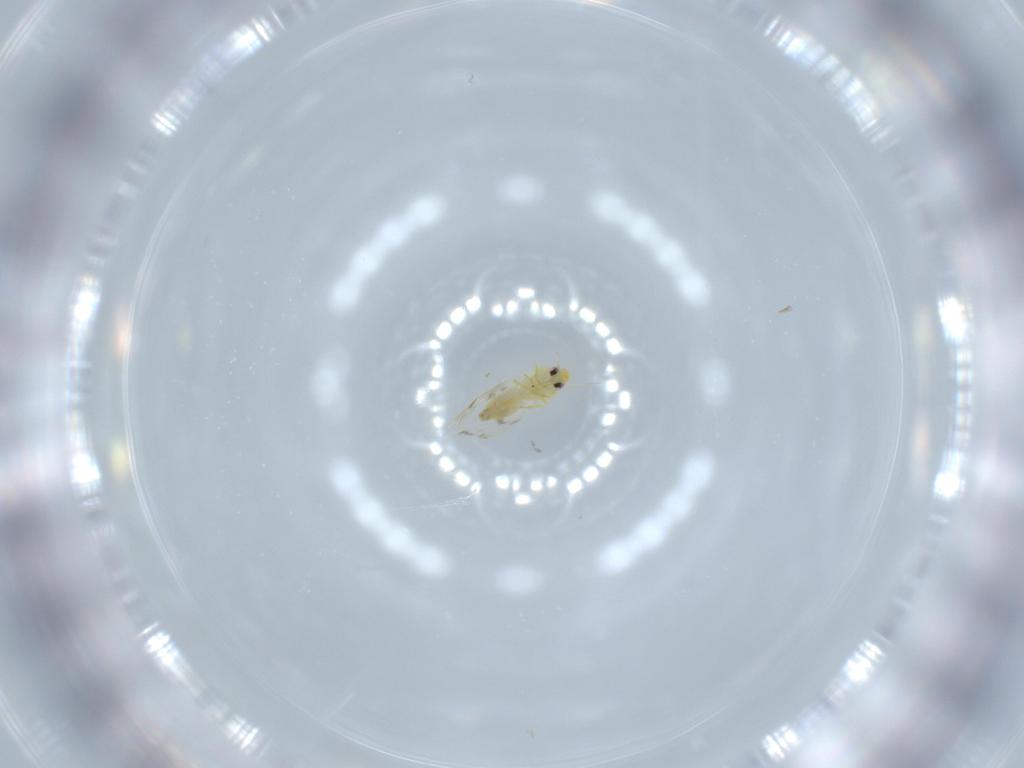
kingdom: Animalia
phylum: Arthropoda
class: Insecta
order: Hemiptera
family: Aleyrodidae
